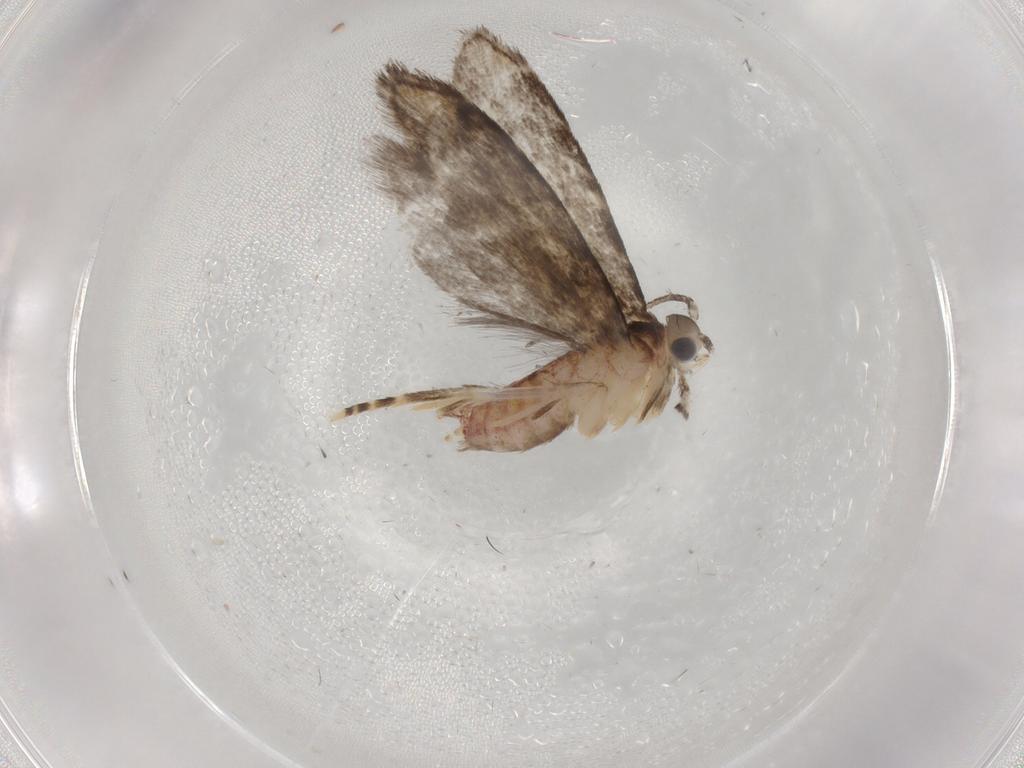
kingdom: Animalia
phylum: Arthropoda
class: Insecta
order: Lepidoptera
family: Tineidae
